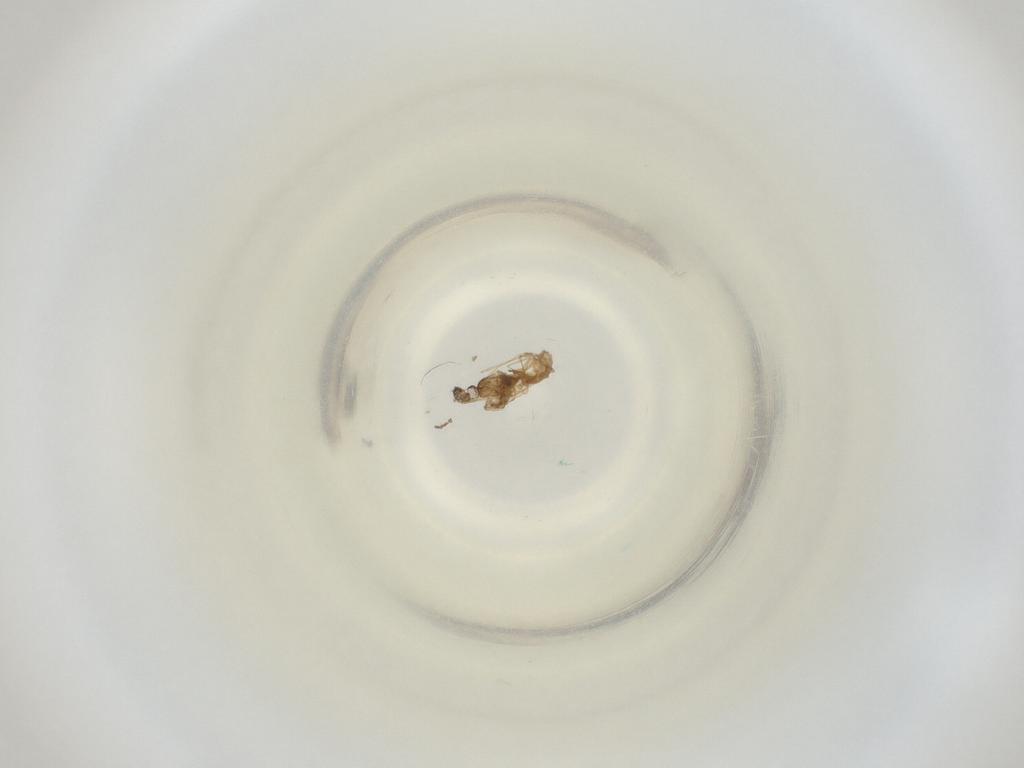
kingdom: Animalia
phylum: Arthropoda
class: Insecta
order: Diptera
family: Cecidomyiidae
